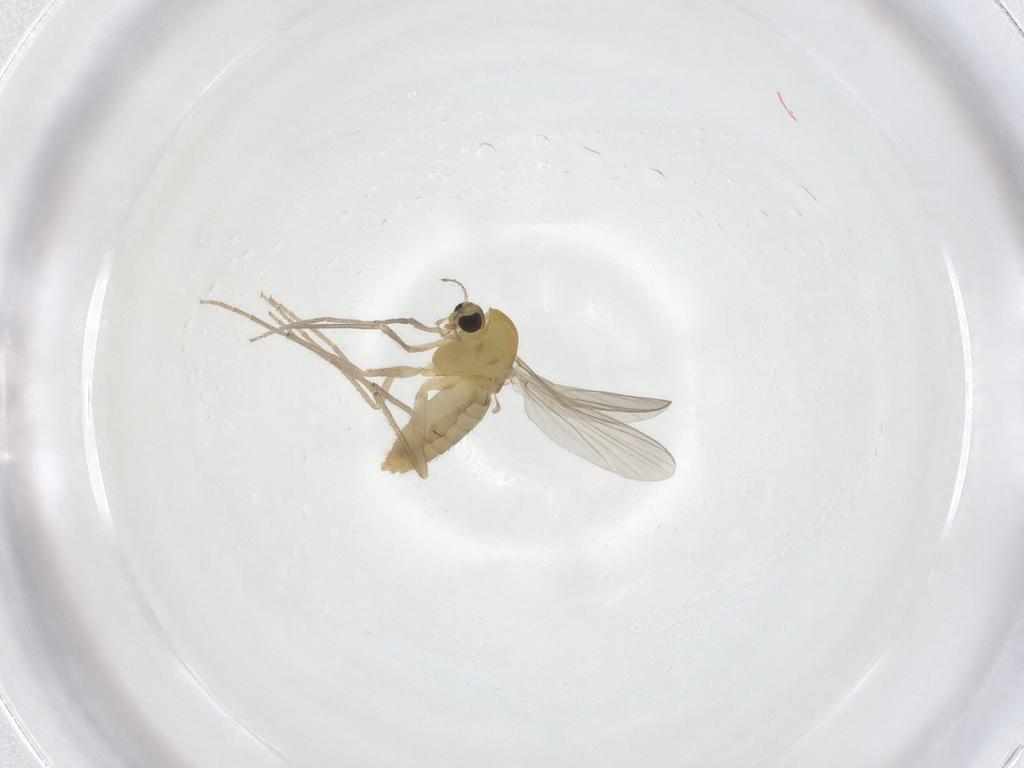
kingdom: Animalia
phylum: Arthropoda
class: Insecta
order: Diptera
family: Chironomidae
